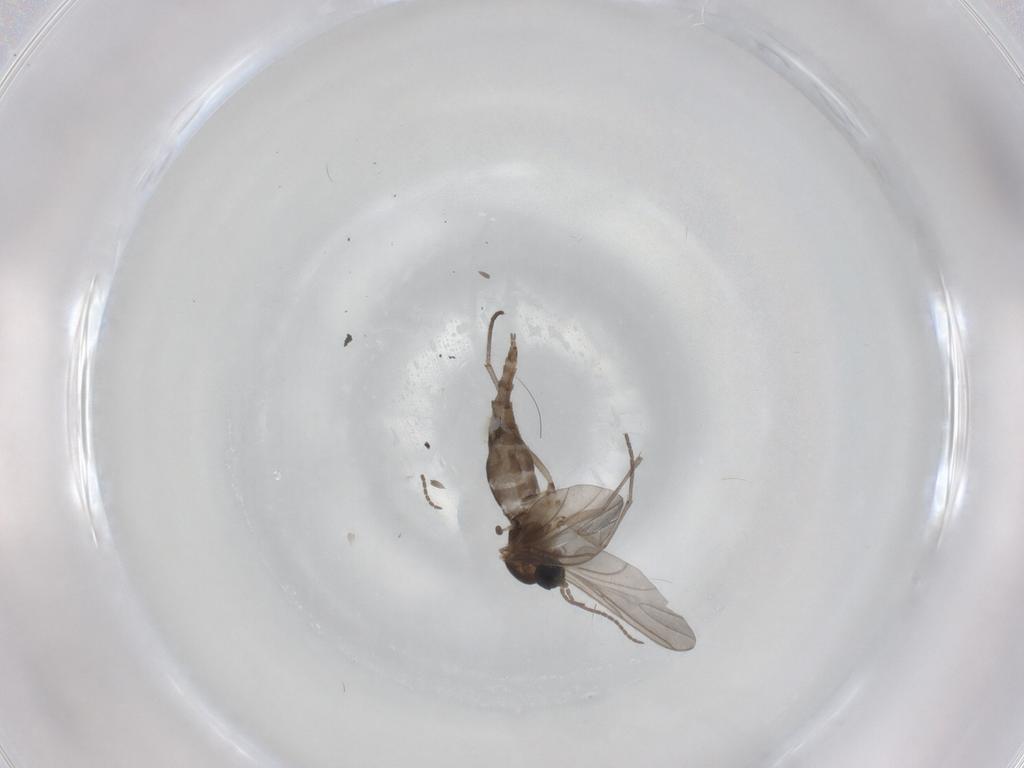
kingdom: Animalia
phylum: Arthropoda
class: Insecta
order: Diptera
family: Sciaridae
